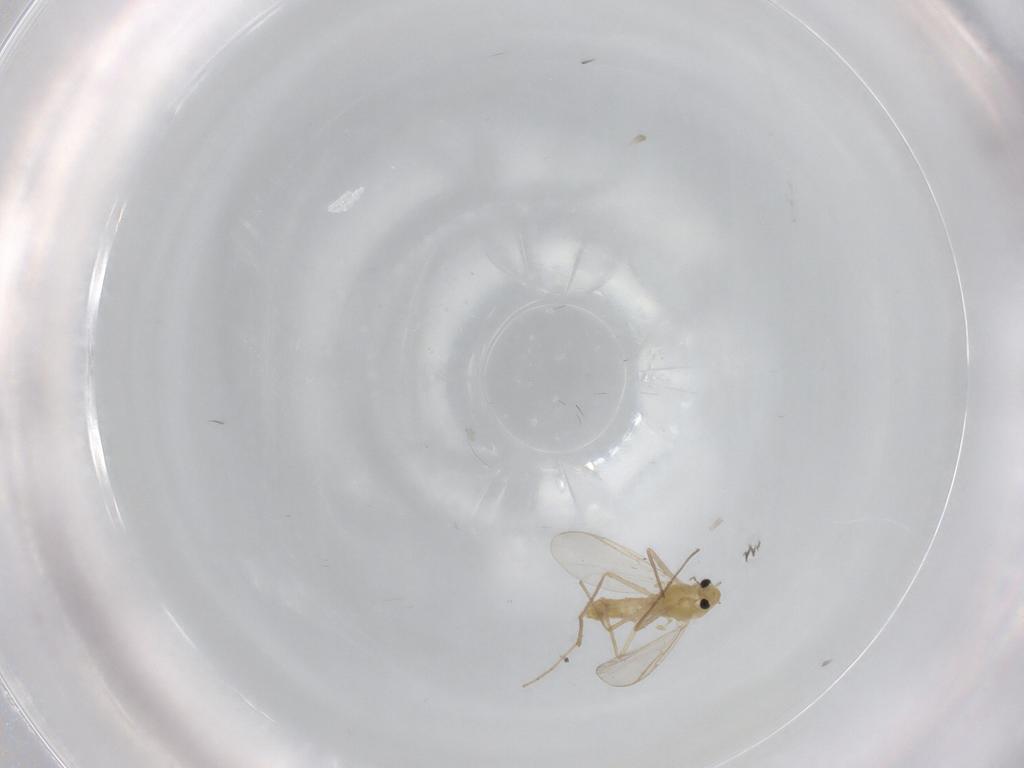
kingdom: Animalia
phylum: Arthropoda
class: Insecta
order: Diptera
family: Chironomidae
